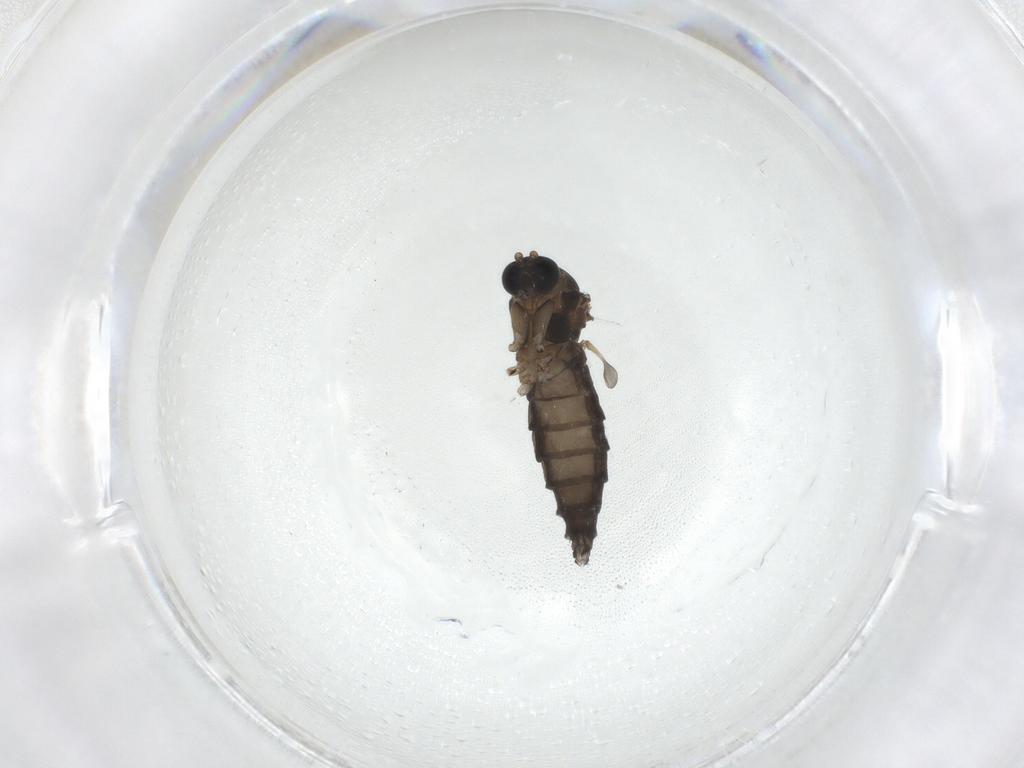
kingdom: Animalia
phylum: Arthropoda
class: Insecta
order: Diptera
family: Sciaridae
